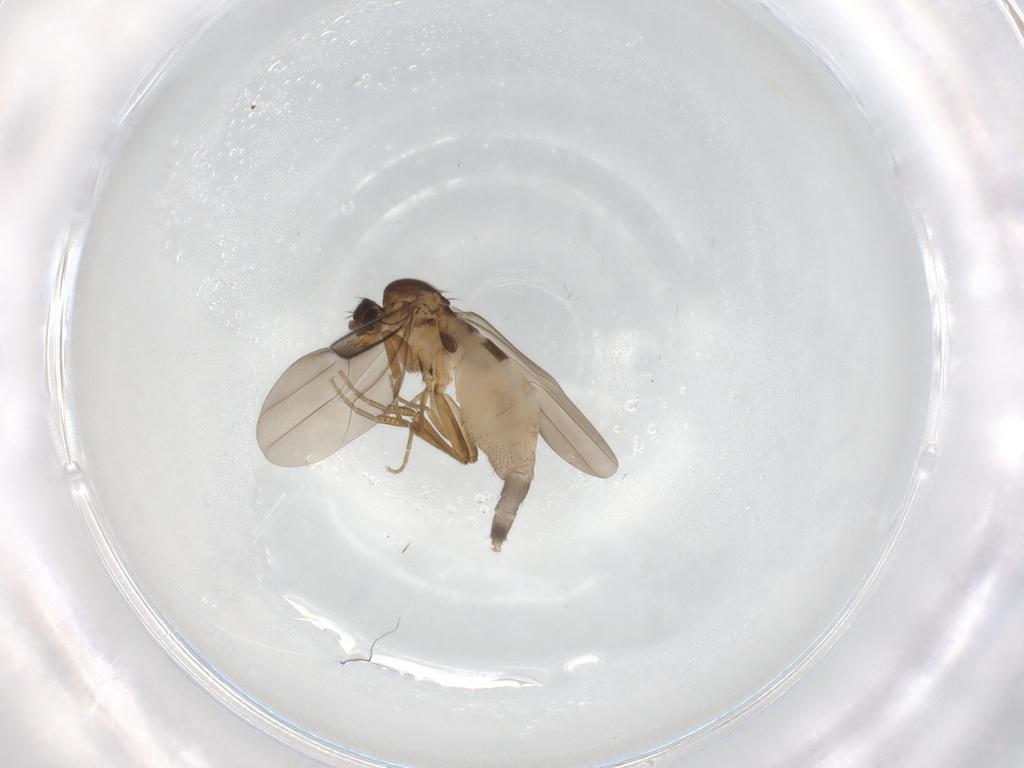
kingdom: Animalia
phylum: Arthropoda
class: Insecta
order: Diptera
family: Phoridae
